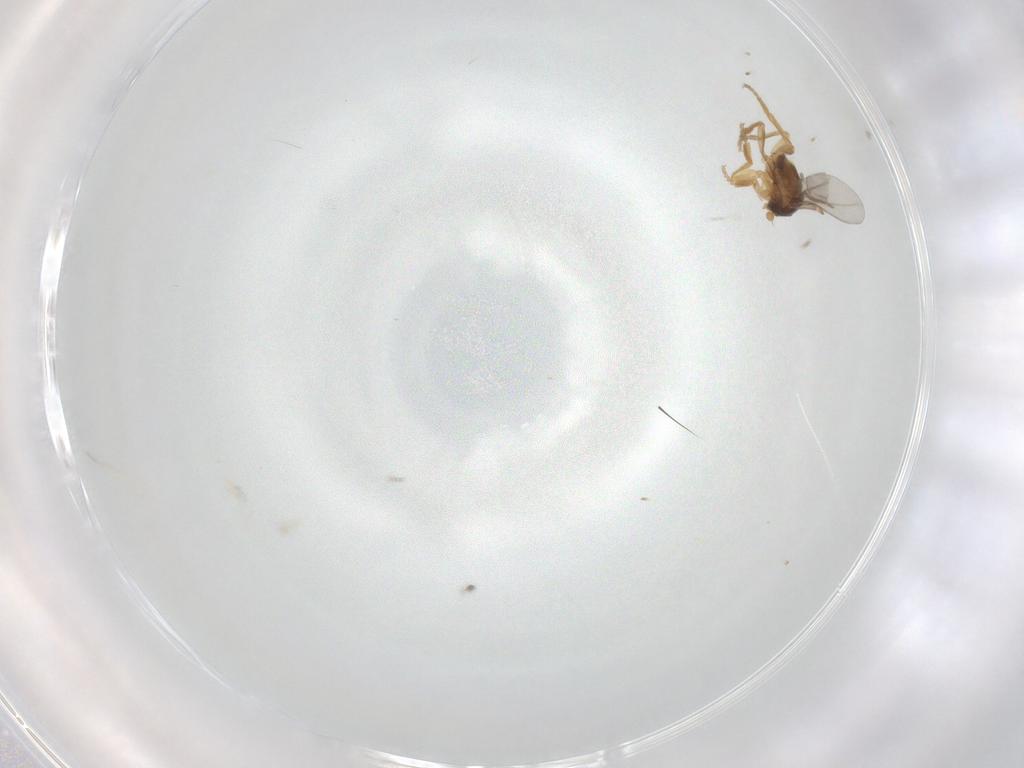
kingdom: Animalia
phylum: Arthropoda
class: Insecta
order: Diptera
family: Phoridae
